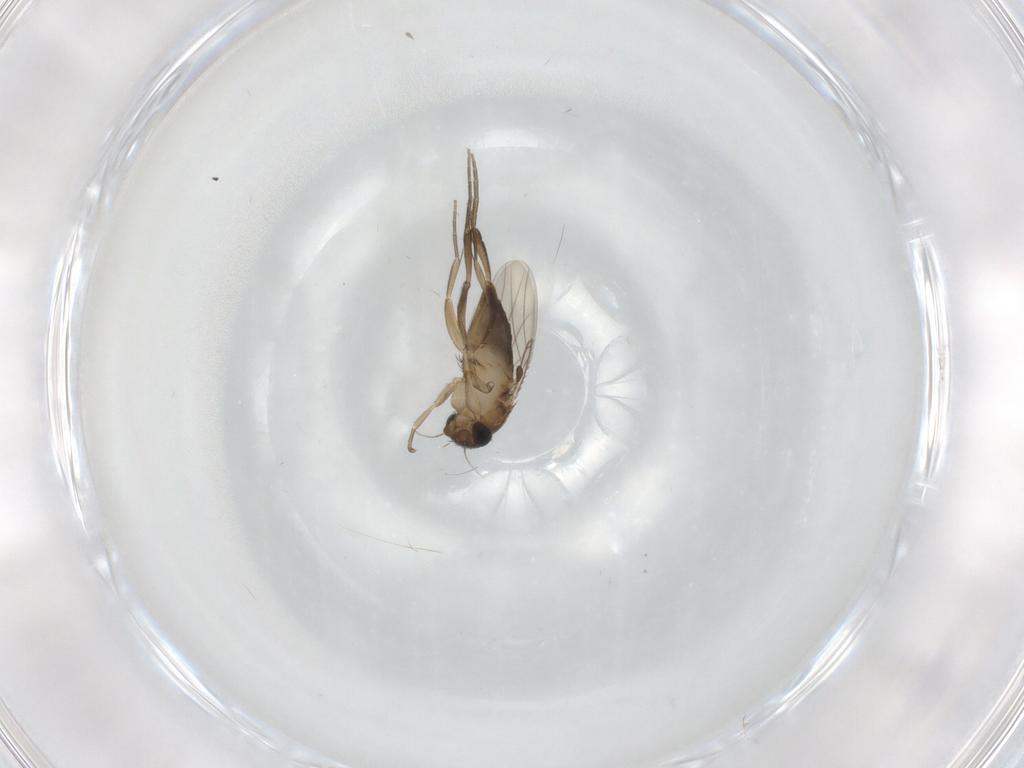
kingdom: Animalia
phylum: Arthropoda
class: Insecta
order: Diptera
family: Phoridae
